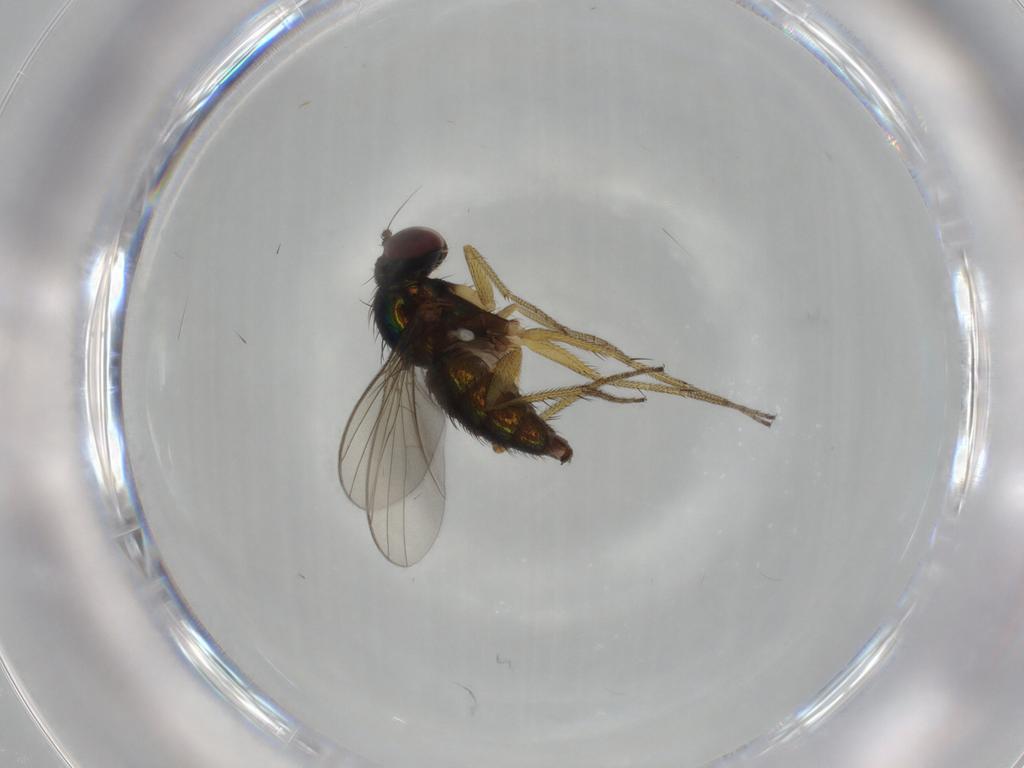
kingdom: Animalia
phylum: Arthropoda
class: Insecta
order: Diptera
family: Dolichopodidae
